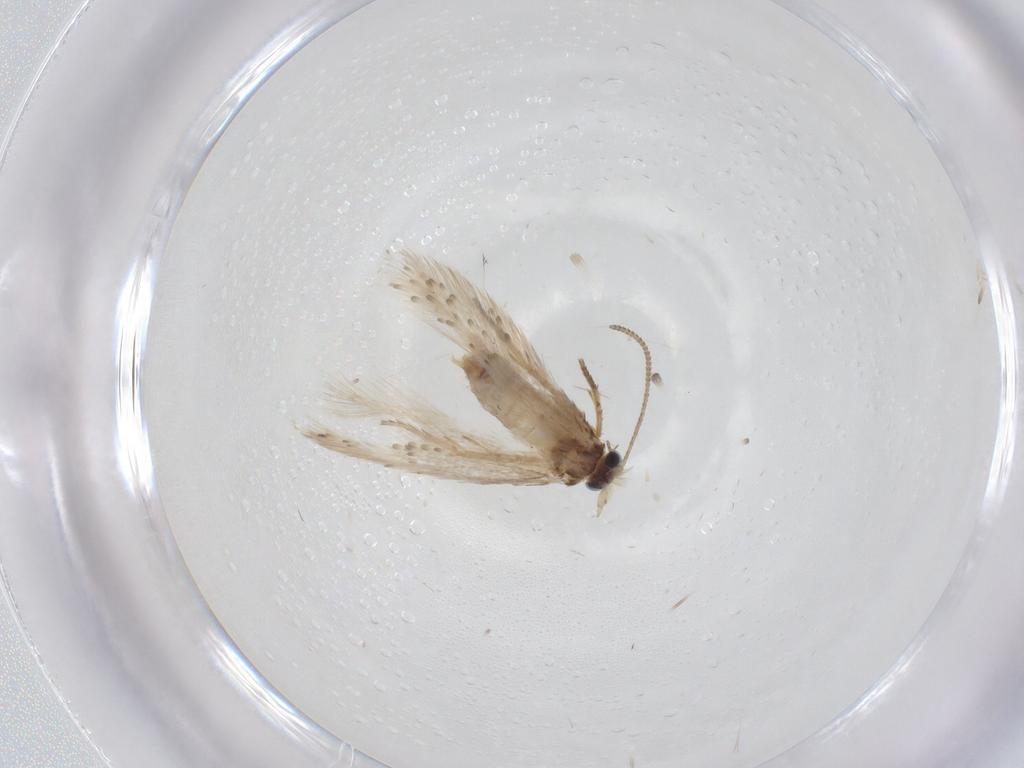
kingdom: Animalia
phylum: Arthropoda
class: Insecta
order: Lepidoptera
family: Nepticulidae
